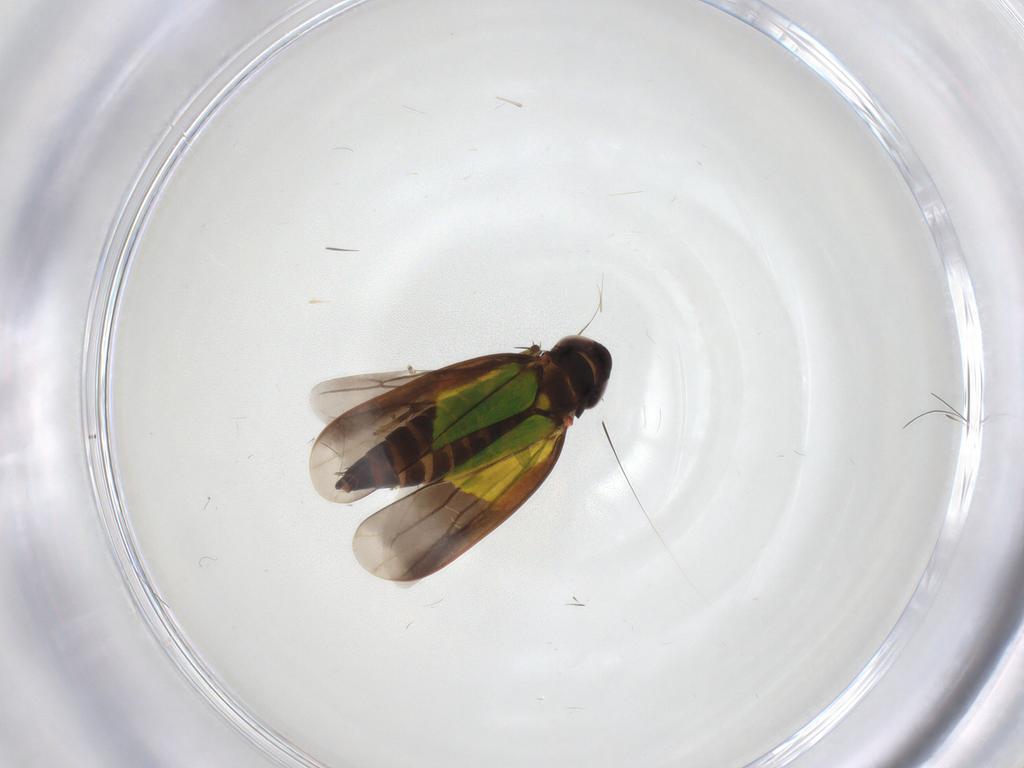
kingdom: Animalia
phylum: Arthropoda
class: Insecta
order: Hemiptera
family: Cicadellidae
